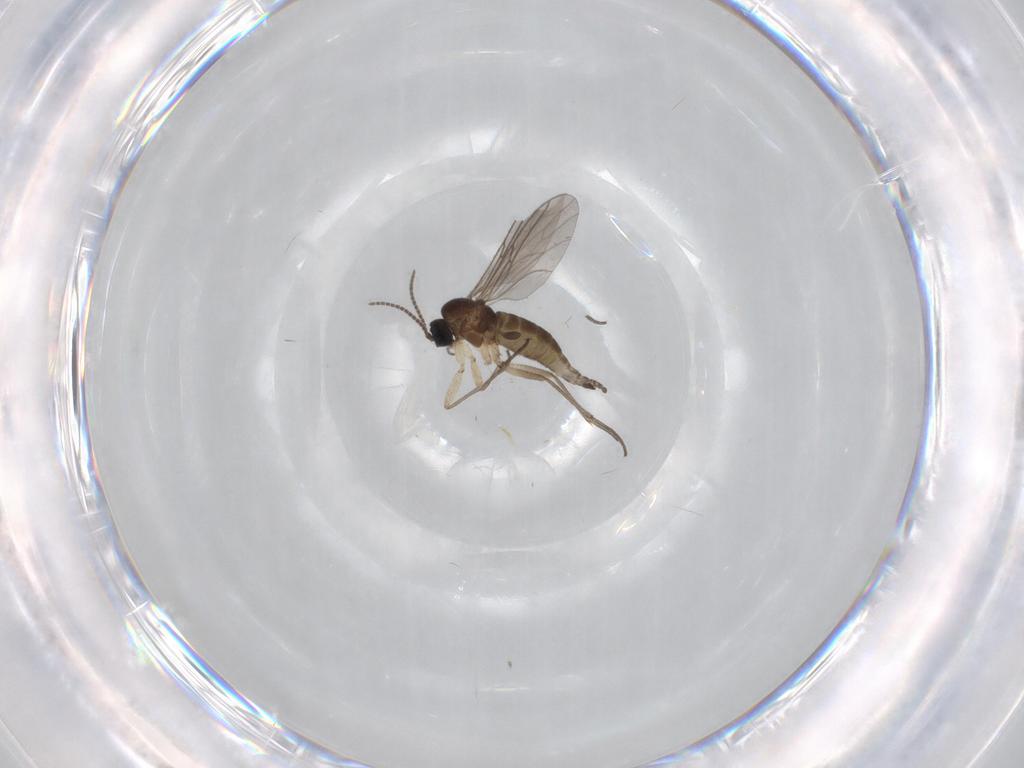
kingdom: Animalia
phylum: Arthropoda
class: Insecta
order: Diptera
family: Sciaridae
